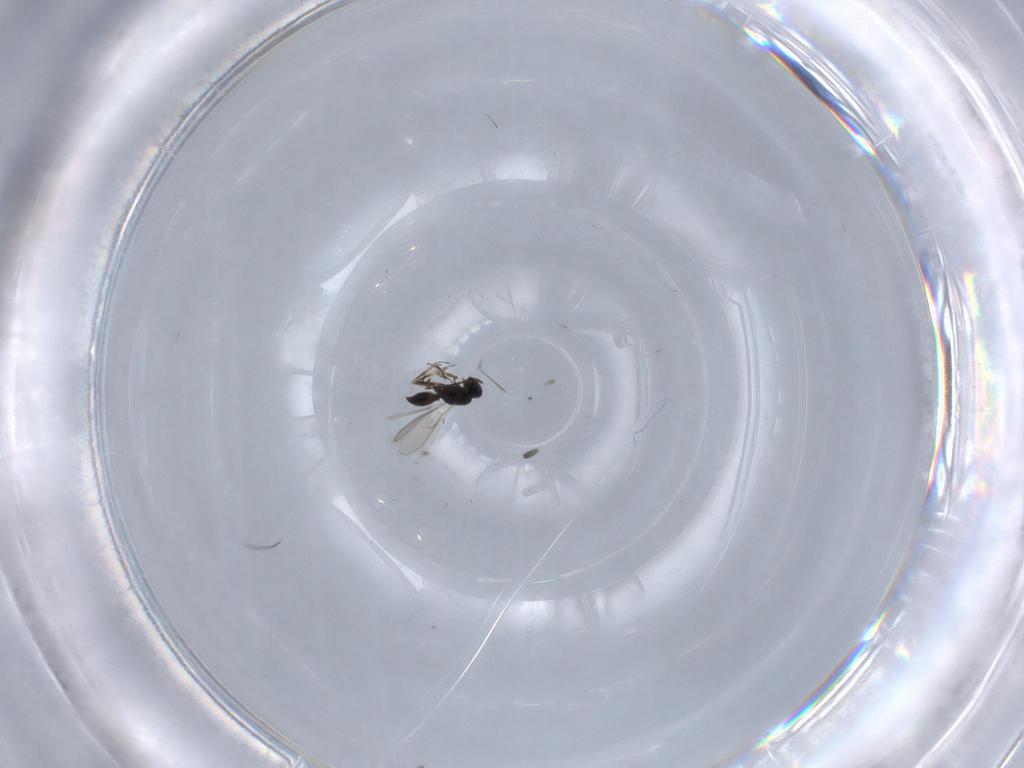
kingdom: Animalia
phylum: Arthropoda
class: Insecta
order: Hymenoptera
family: Scelionidae
